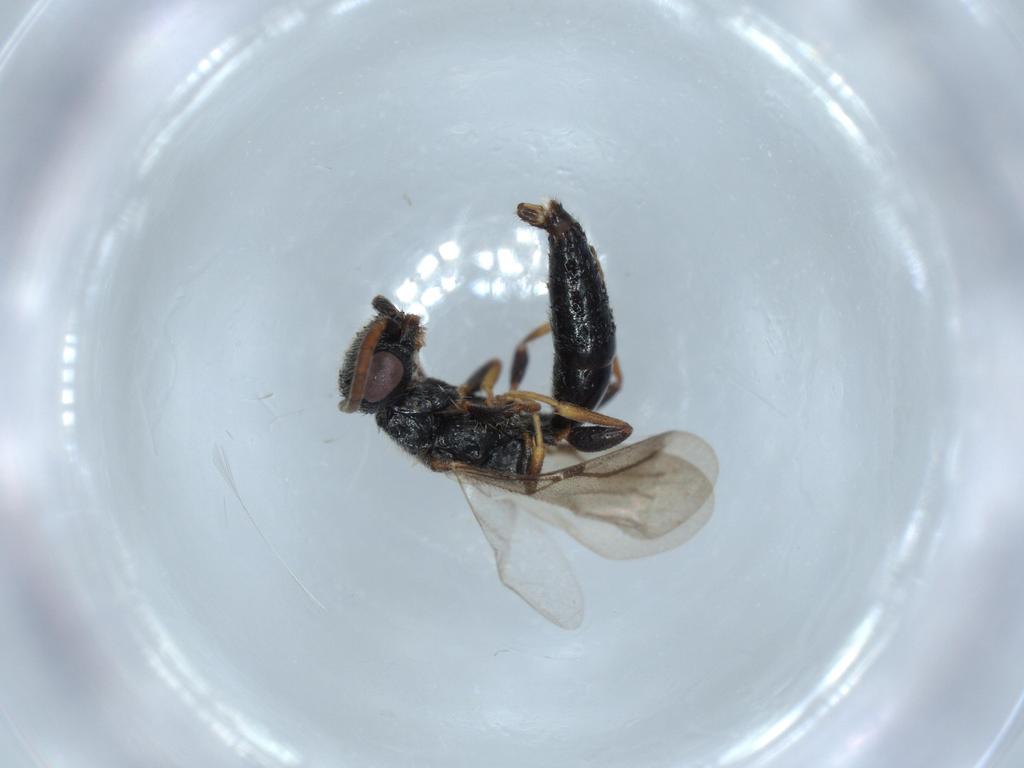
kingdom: Animalia
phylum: Arthropoda
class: Insecta
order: Hymenoptera
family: Bethylidae
